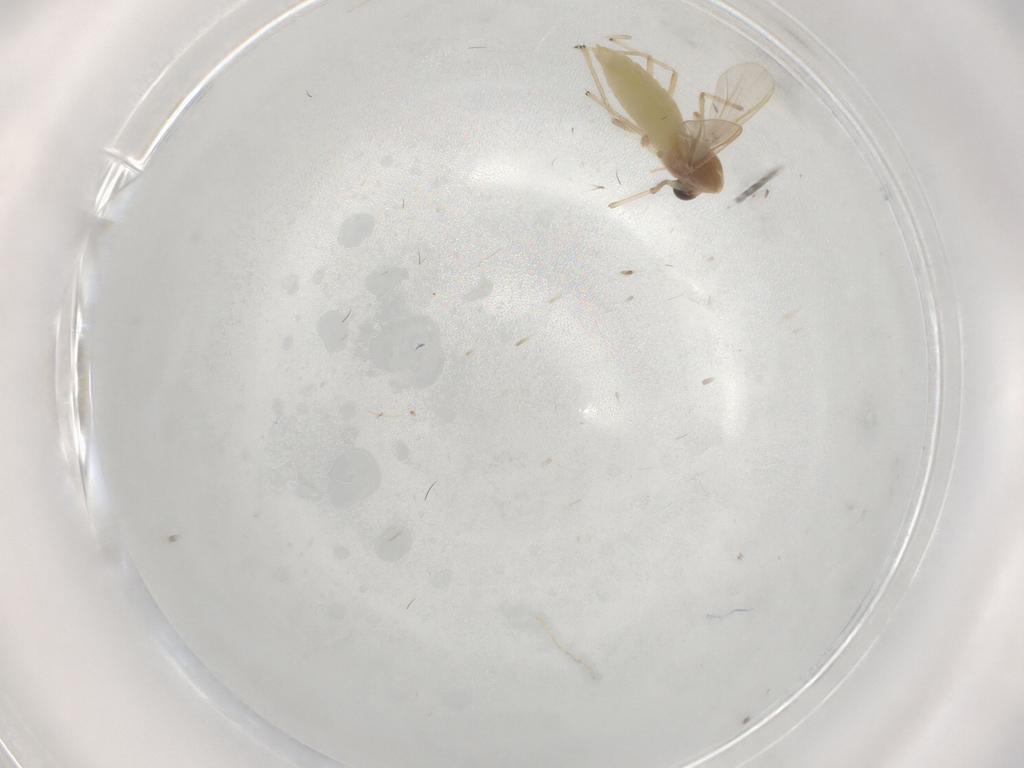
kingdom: Animalia
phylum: Arthropoda
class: Insecta
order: Diptera
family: Chironomidae
